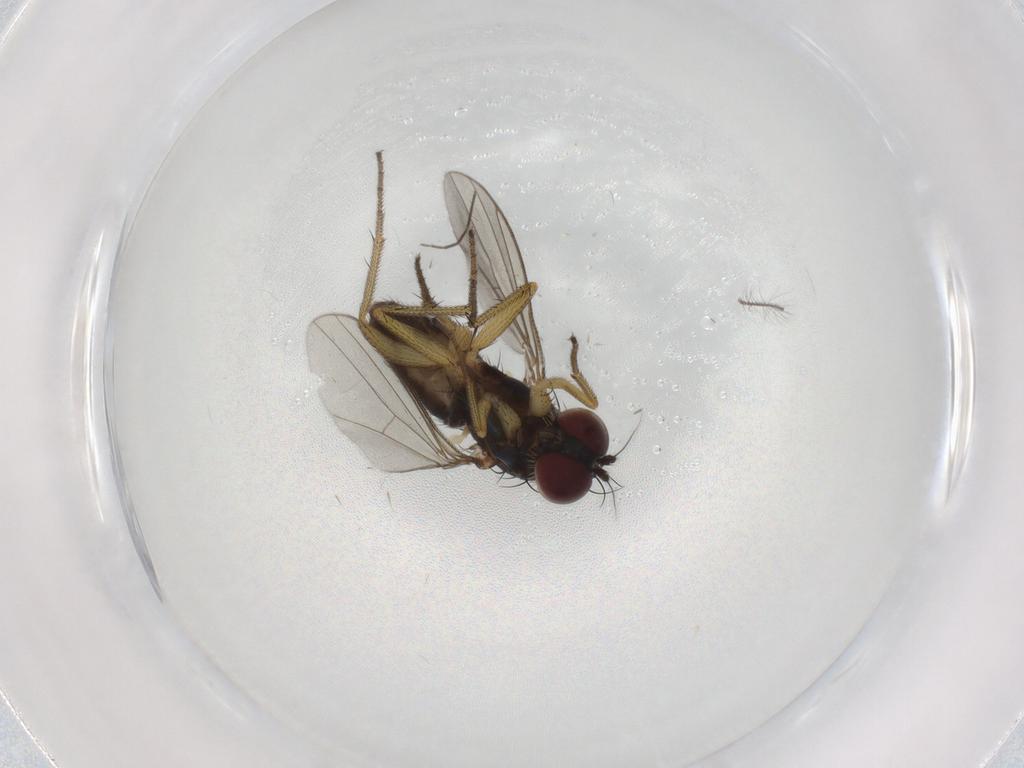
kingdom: Animalia
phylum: Arthropoda
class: Insecta
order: Diptera
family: Dolichopodidae
